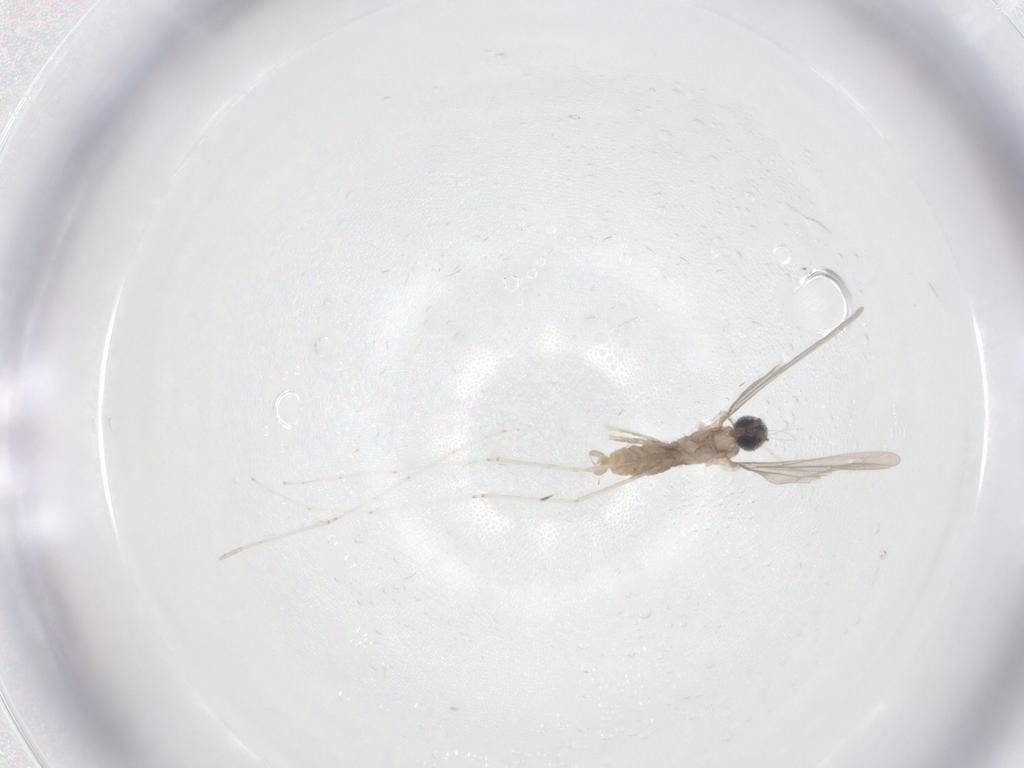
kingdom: Animalia
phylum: Arthropoda
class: Insecta
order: Diptera
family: Cecidomyiidae
